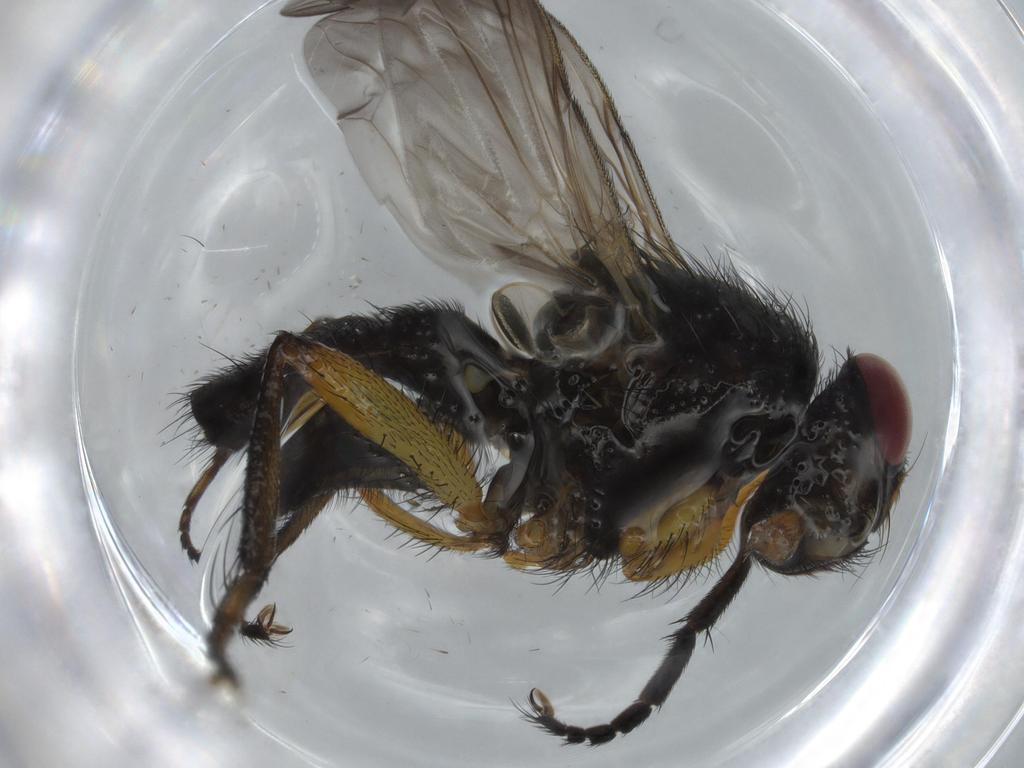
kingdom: Animalia
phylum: Arthropoda
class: Insecta
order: Diptera
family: Calliphoridae
